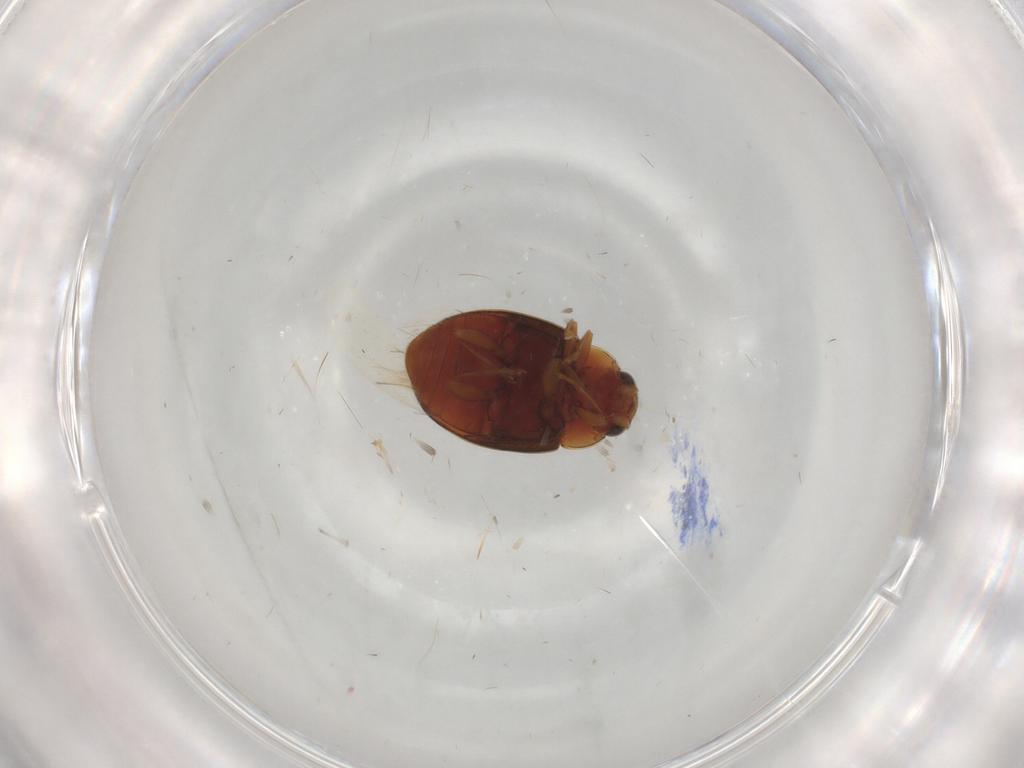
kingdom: Animalia
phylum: Arthropoda
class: Insecta
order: Coleoptera
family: Coccinellidae
